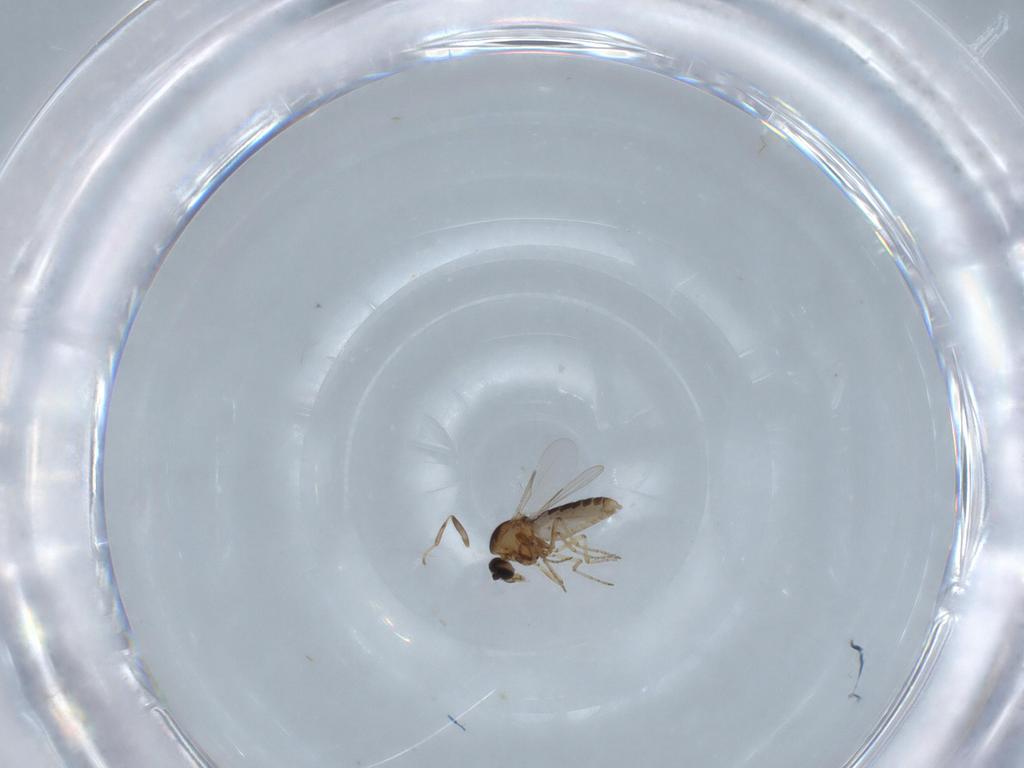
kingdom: Animalia
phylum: Arthropoda
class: Insecta
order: Diptera
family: Ceratopogonidae
